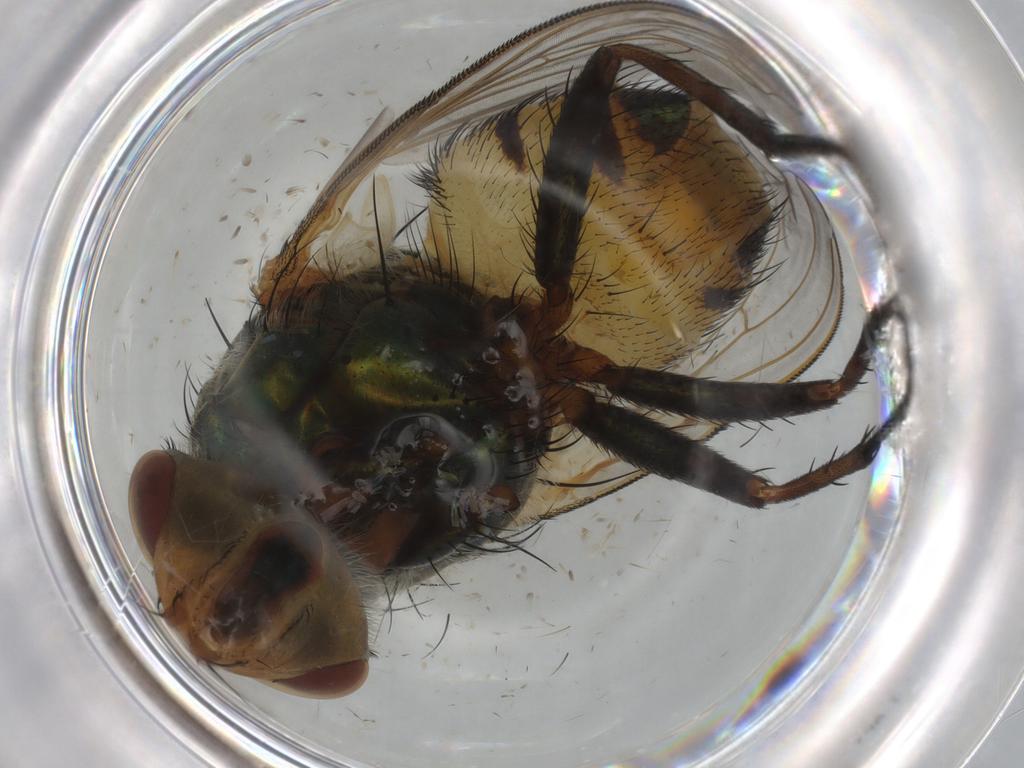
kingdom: Animalia
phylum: Arthropoda
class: Insecta
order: Diptera
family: Calliphoridae
